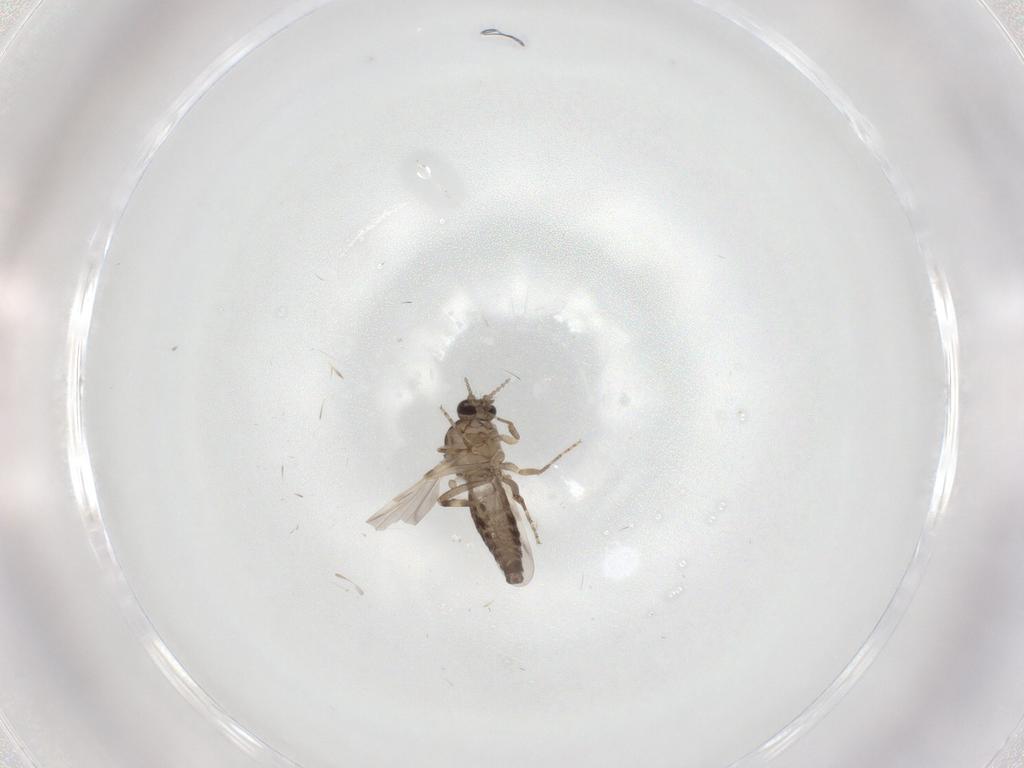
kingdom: Animalia
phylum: Arthropoda
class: Insecta
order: Diptera
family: Ceratopogonidae
